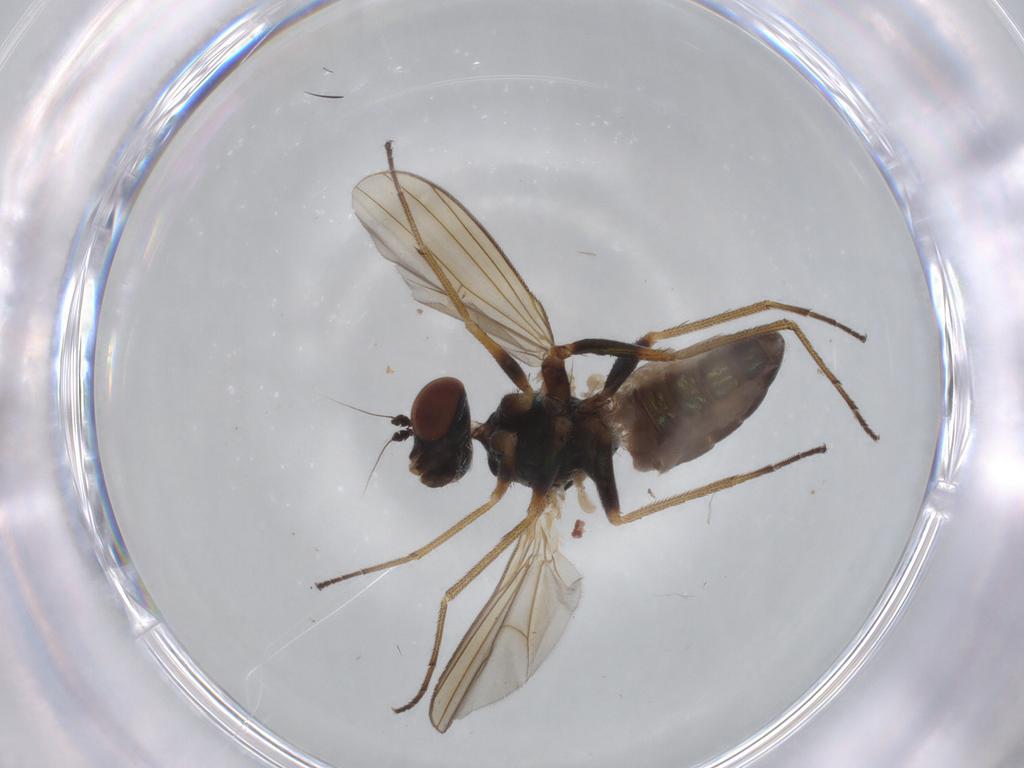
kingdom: Animalia
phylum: Arthropoda
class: Insecta
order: Diptera
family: Dolichopodidae
